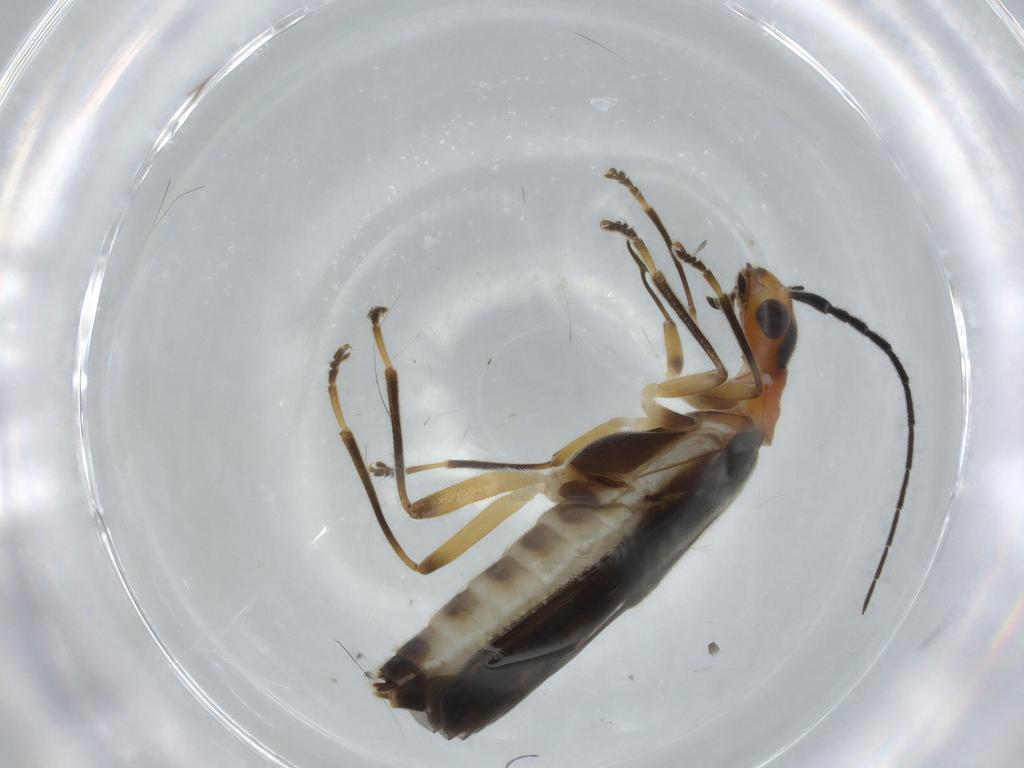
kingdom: Animalia
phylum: Arthropoda
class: Insecta
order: Coleoptera
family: Cantharidae
